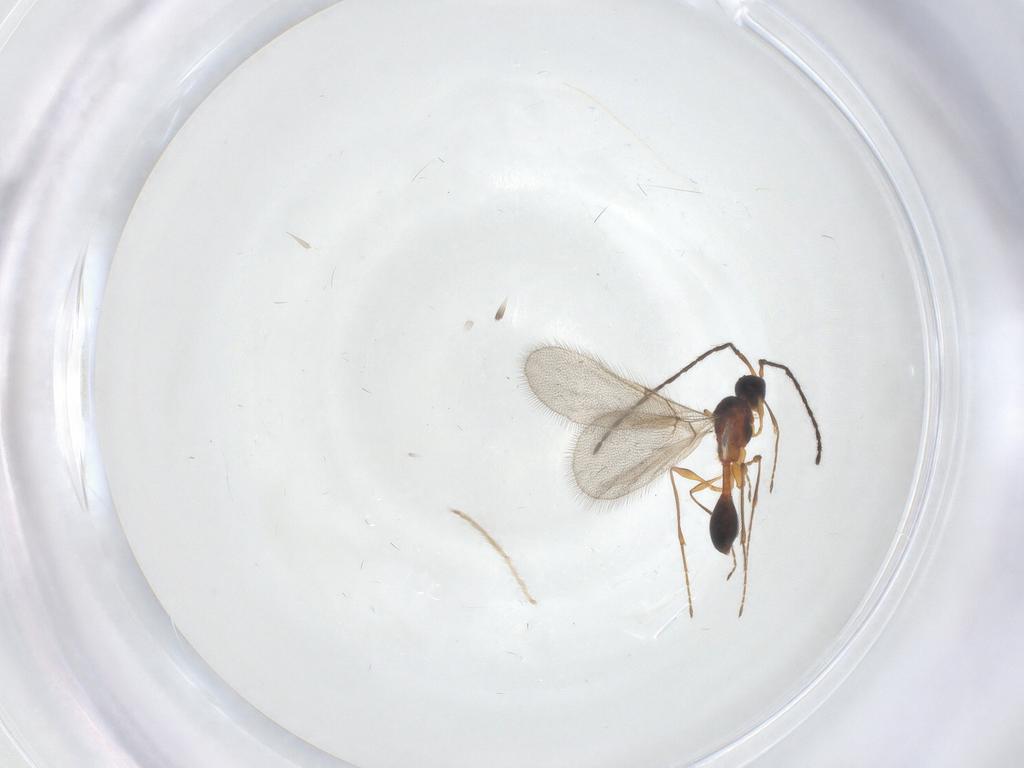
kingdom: Animalia
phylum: Arthropoda
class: Insecta
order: Hymenoptera
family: Diapriidae
